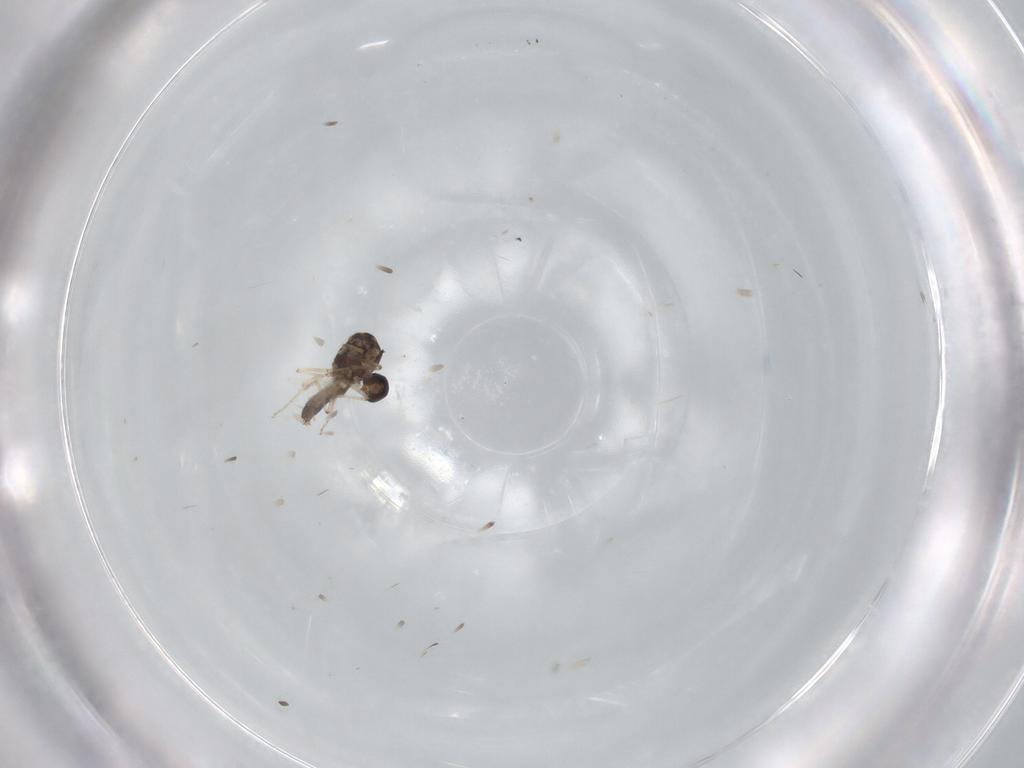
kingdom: Animalia
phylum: Arthropoda
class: Insecta
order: Diptera
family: Ceratopogonidae
